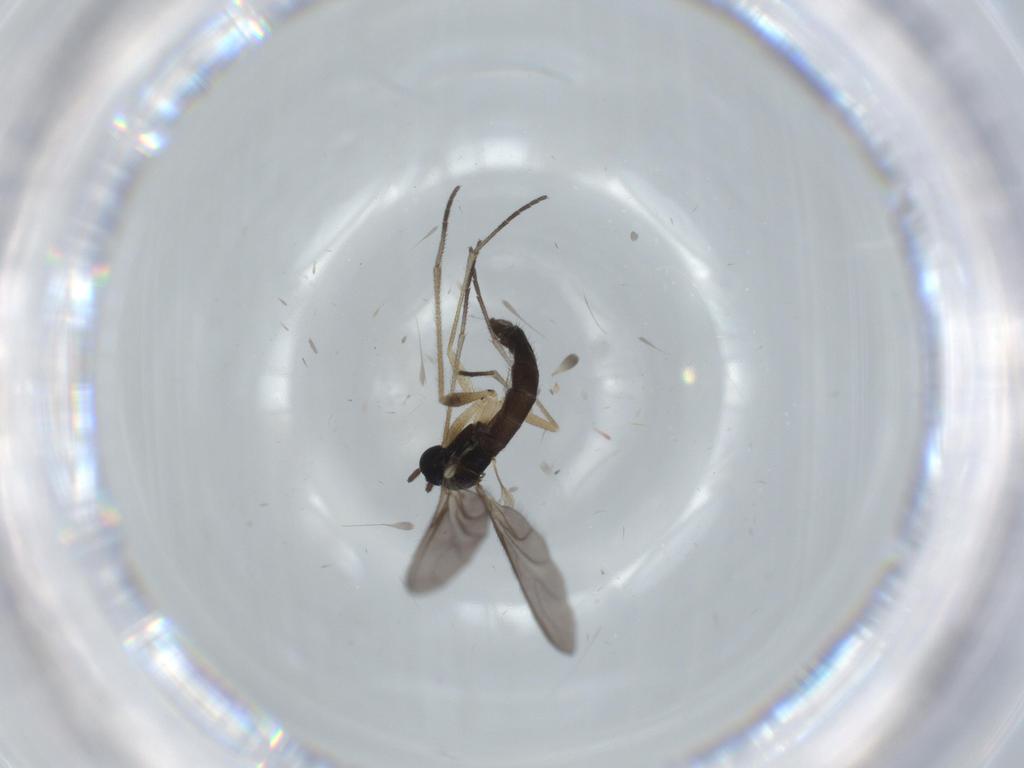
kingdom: Animalia
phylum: Arthropoda
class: Insecta
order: Diptera
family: Sciaridae
